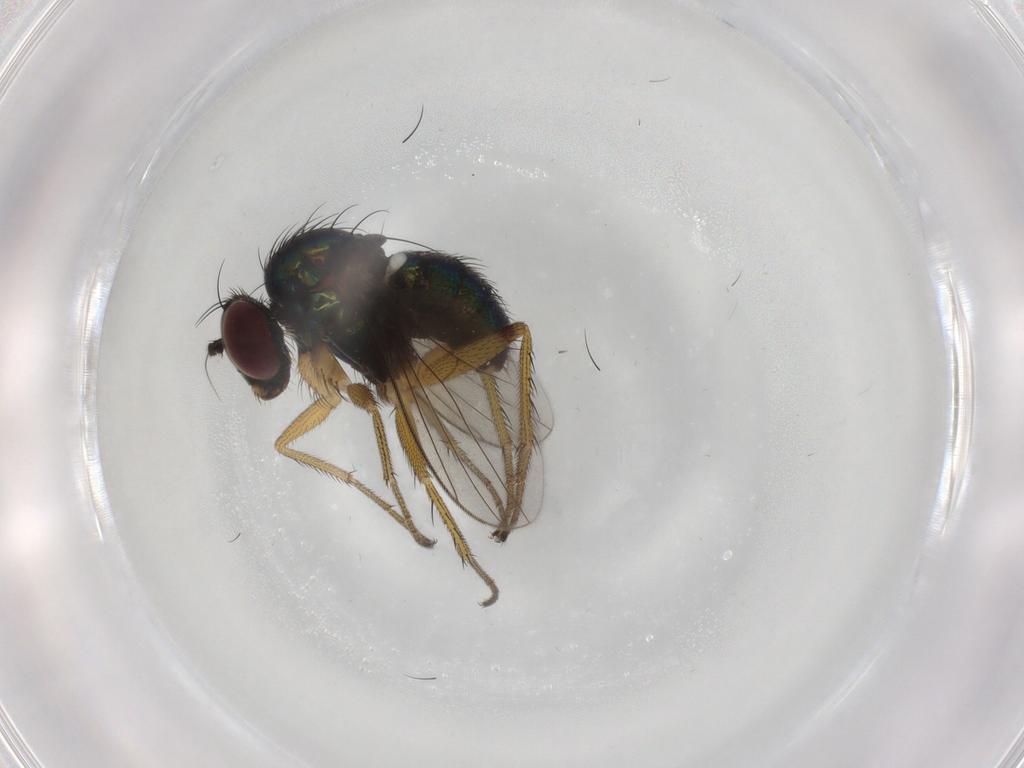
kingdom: Animalia
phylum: Arthropoda
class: Insecta
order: Diptera
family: Dolichopodidae
